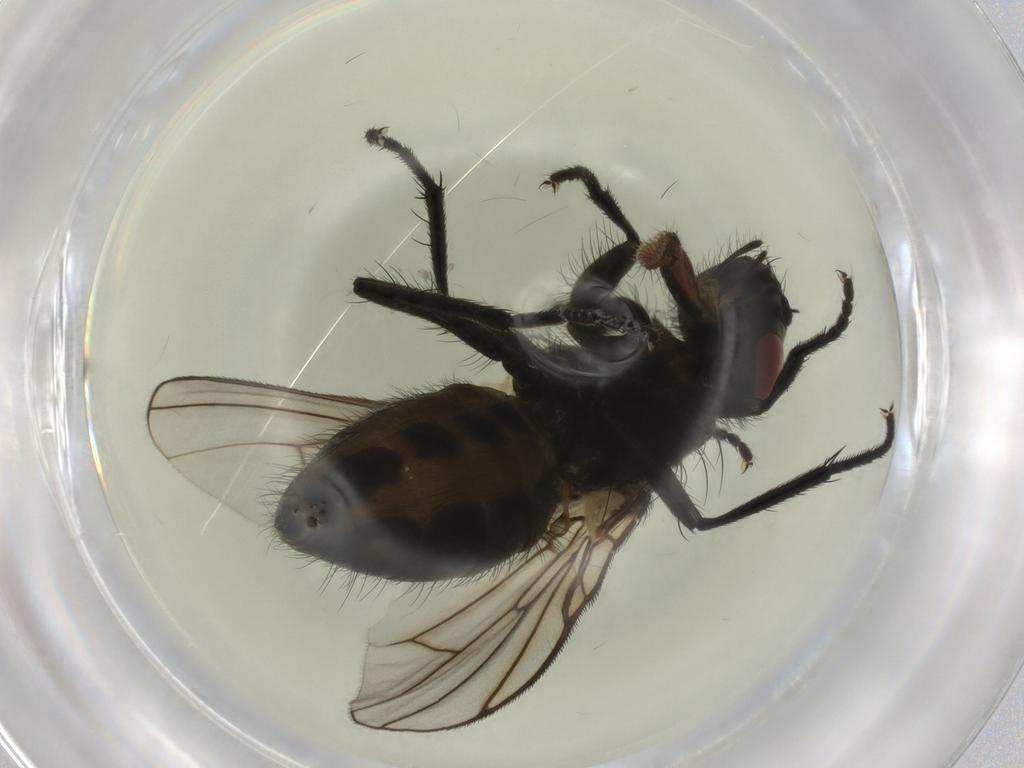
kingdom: Animalia
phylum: Arthropoda
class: Insecta
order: Diptera
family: Muscidae
